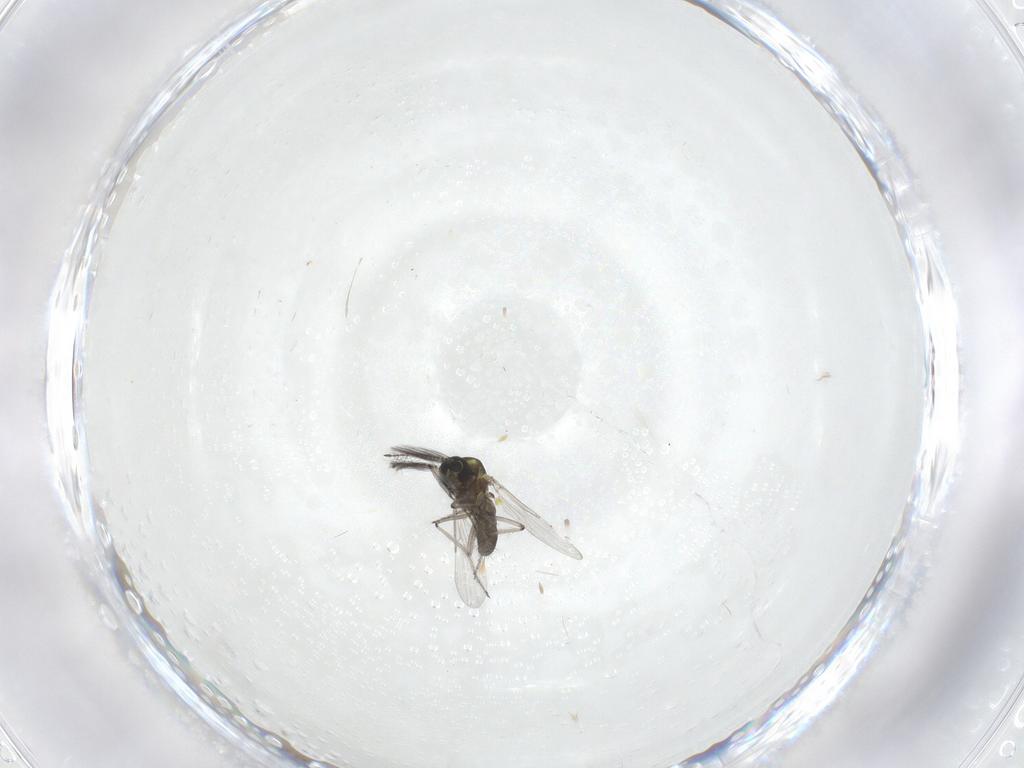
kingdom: Animalia
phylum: Arthropoda
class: Insecta
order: Diptera
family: Ceratopogonidae
